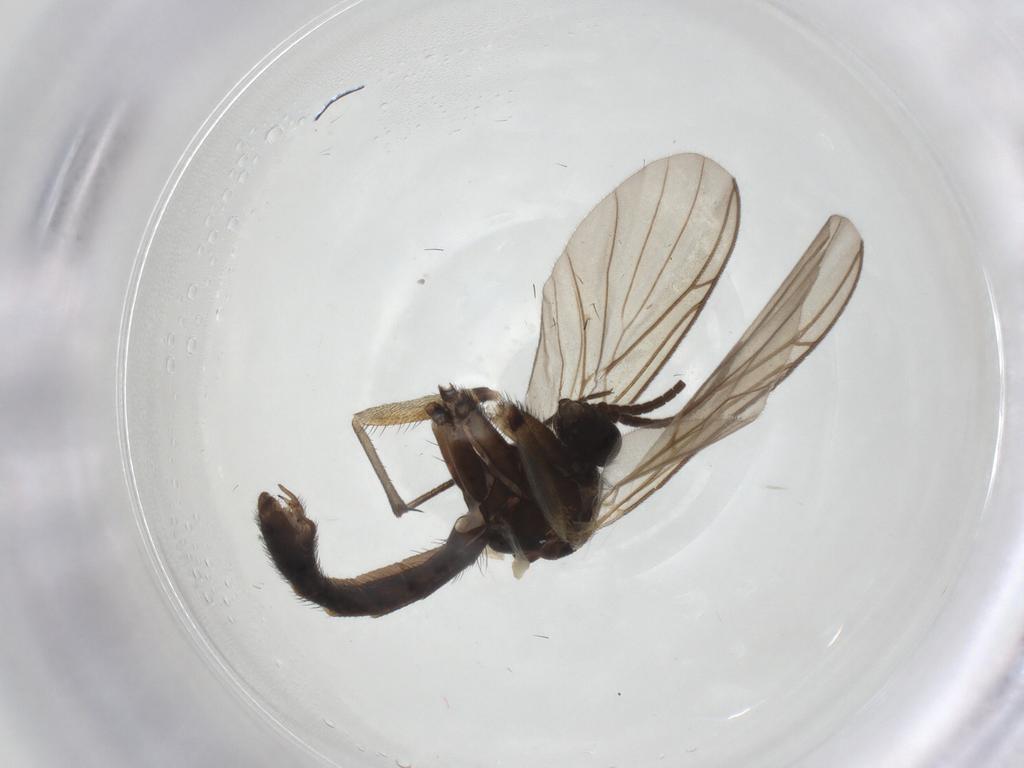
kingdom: Animalia
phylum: Arthropoda
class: Insecta
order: Diptera
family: Keroplatidae
